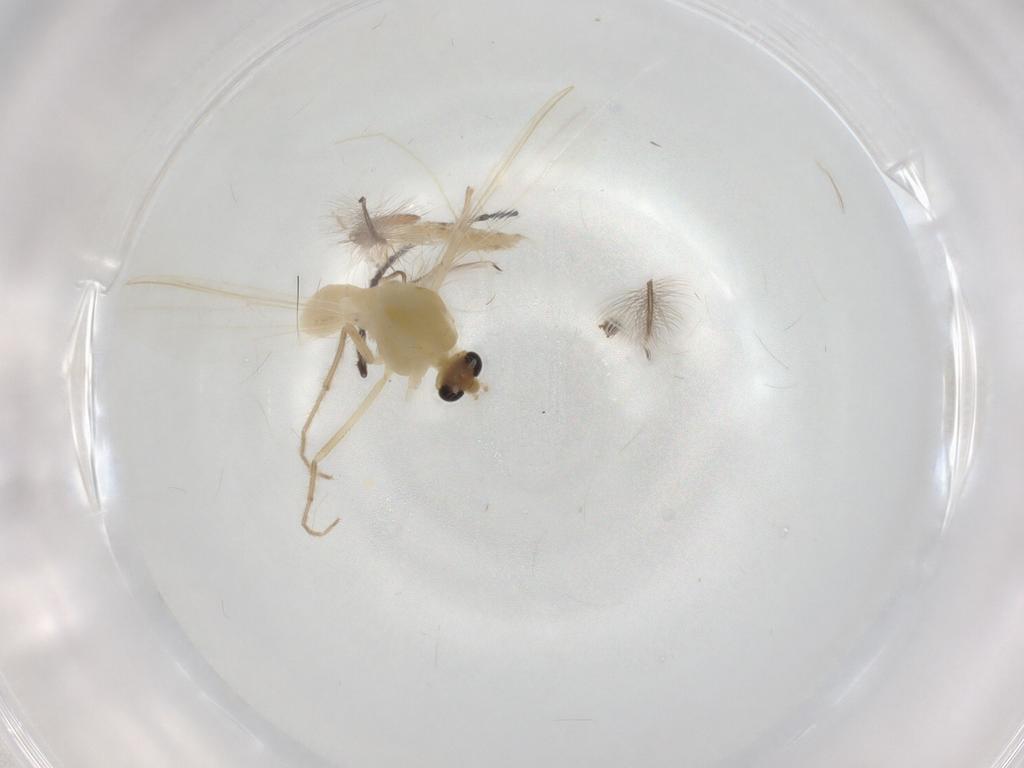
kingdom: Animalia
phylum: Arthropoda
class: Insecta
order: Diptera
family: Chironomidae
